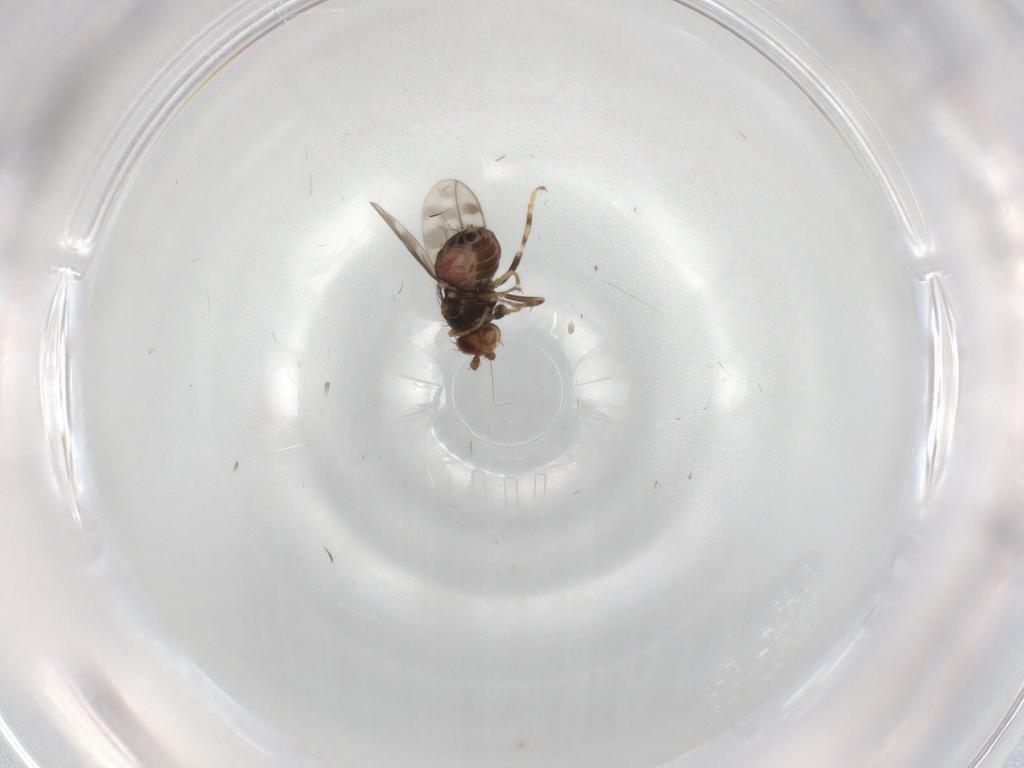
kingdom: Animalia
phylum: Arthropoda
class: Insecta
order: Diptera
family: Sphaeroceridae
